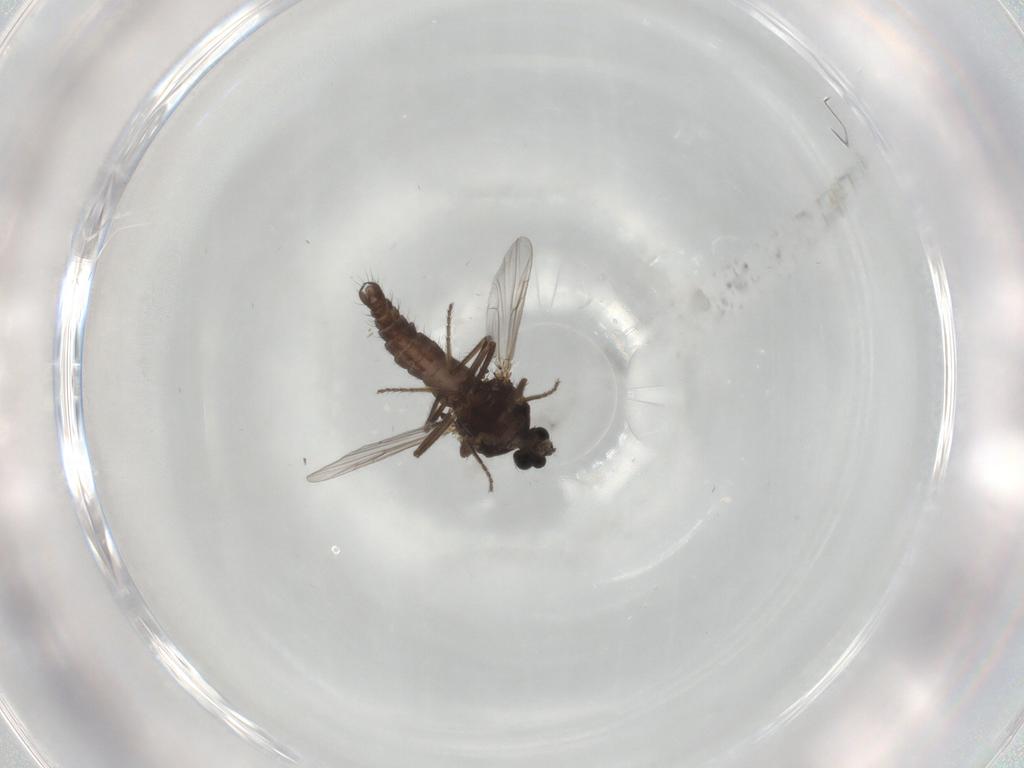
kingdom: Animalia
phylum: Arthropoda
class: Insecta
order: Diptera
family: Ceratopogonidae
